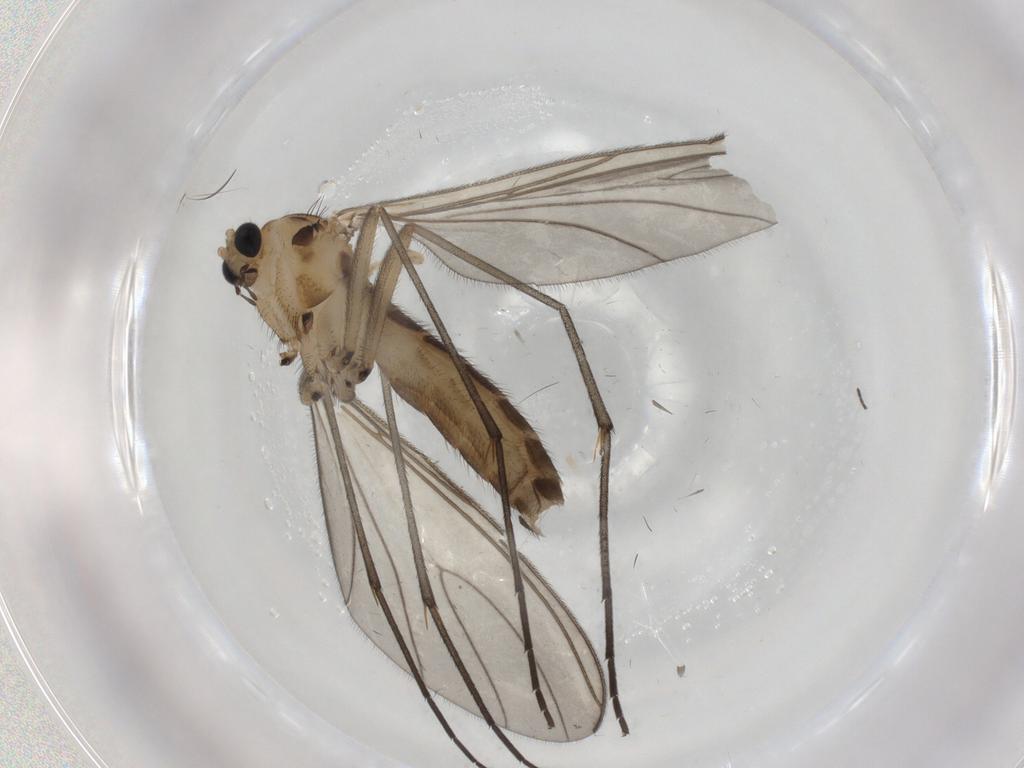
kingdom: Animalia
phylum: Arthropoda
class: Insecta
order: Diptera
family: Sciaridae
